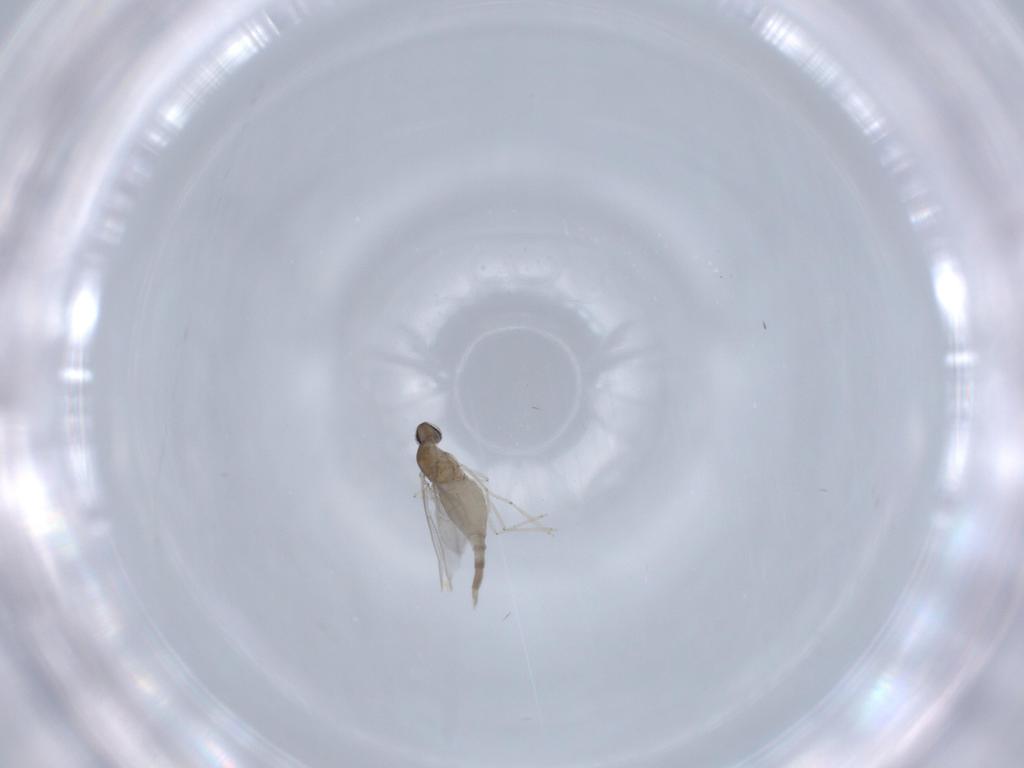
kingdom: Animalia
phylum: Arthropoda
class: Insecta
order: Diptera
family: Cecidomyiidae
